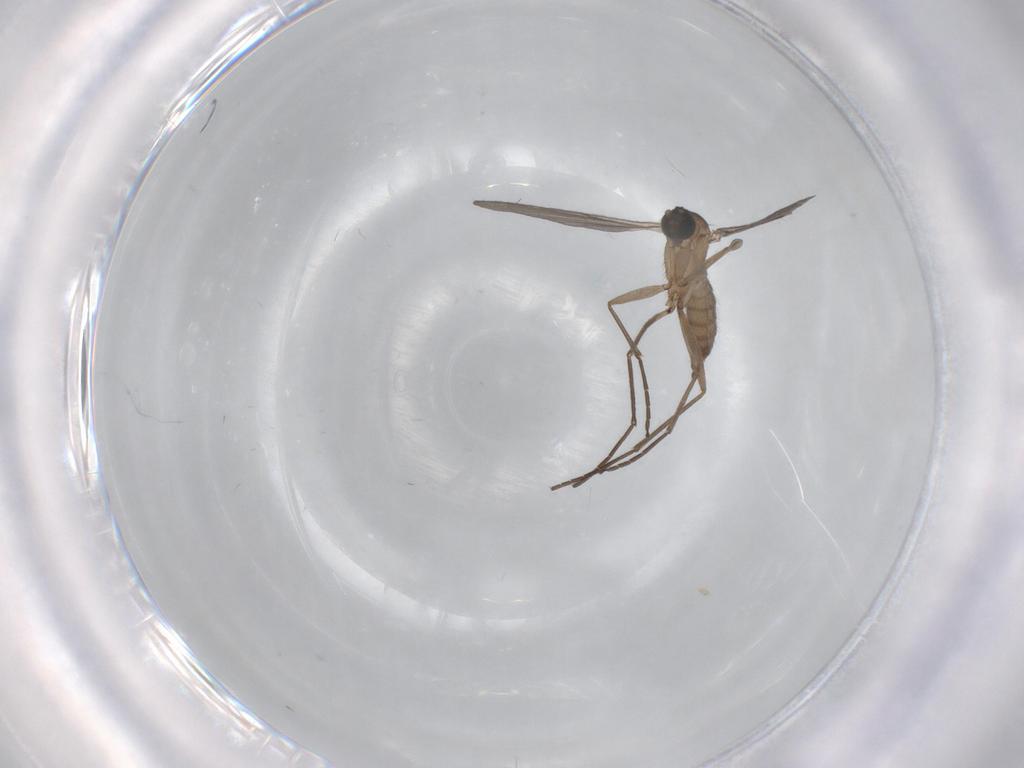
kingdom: Animalia
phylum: Arthropoda
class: Insecta
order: Diptera
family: Sciaridae
